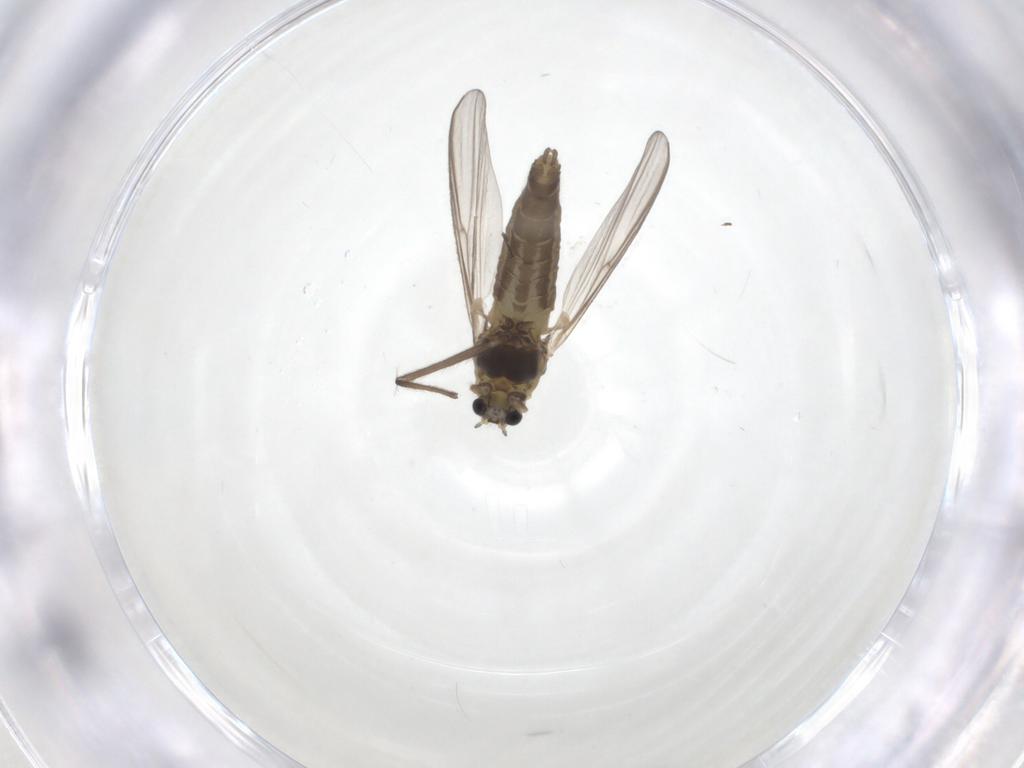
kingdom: Animalia
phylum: Arthropoda
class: Insecta
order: Diptera
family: Chironomidae
